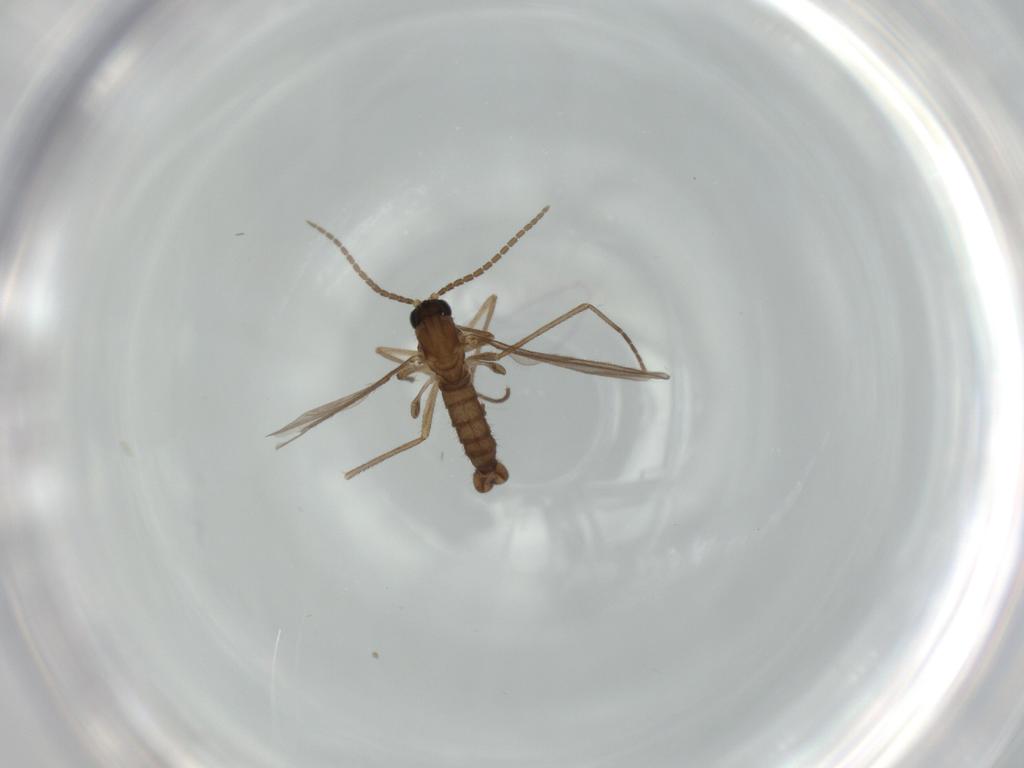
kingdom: Animalia
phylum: Arthropoda
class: Insecta
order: Diptera
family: Sciaridae
